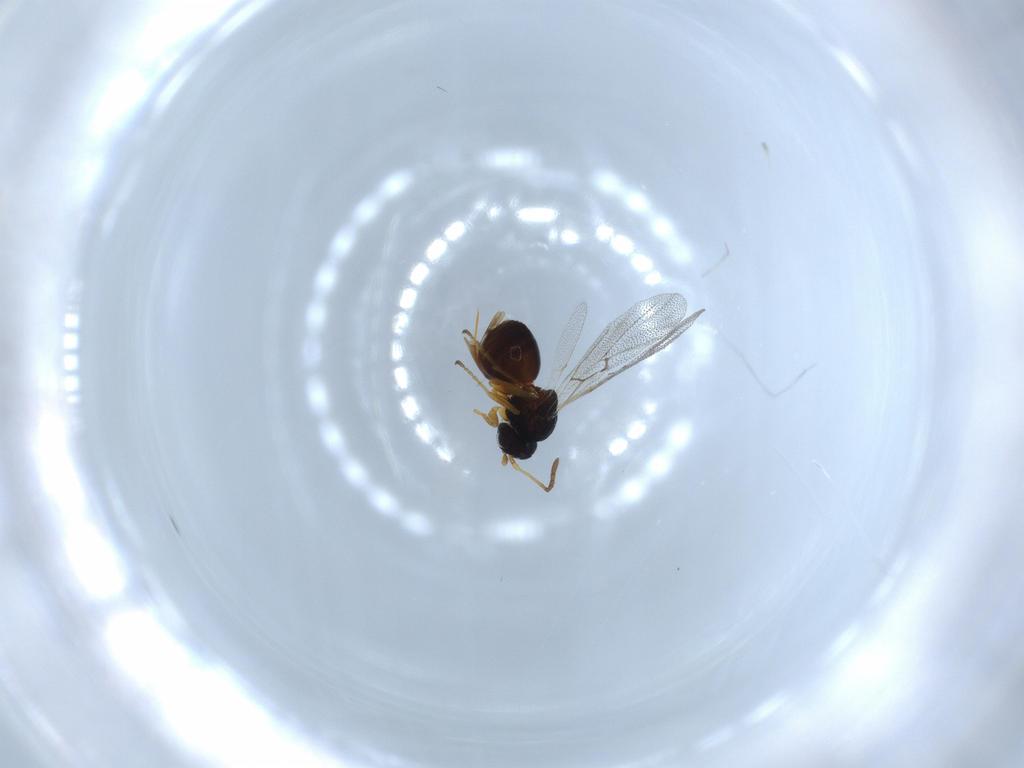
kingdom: Animalia
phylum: Arthropoda
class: Insecta
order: Hymenoptera
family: Cynipidae
